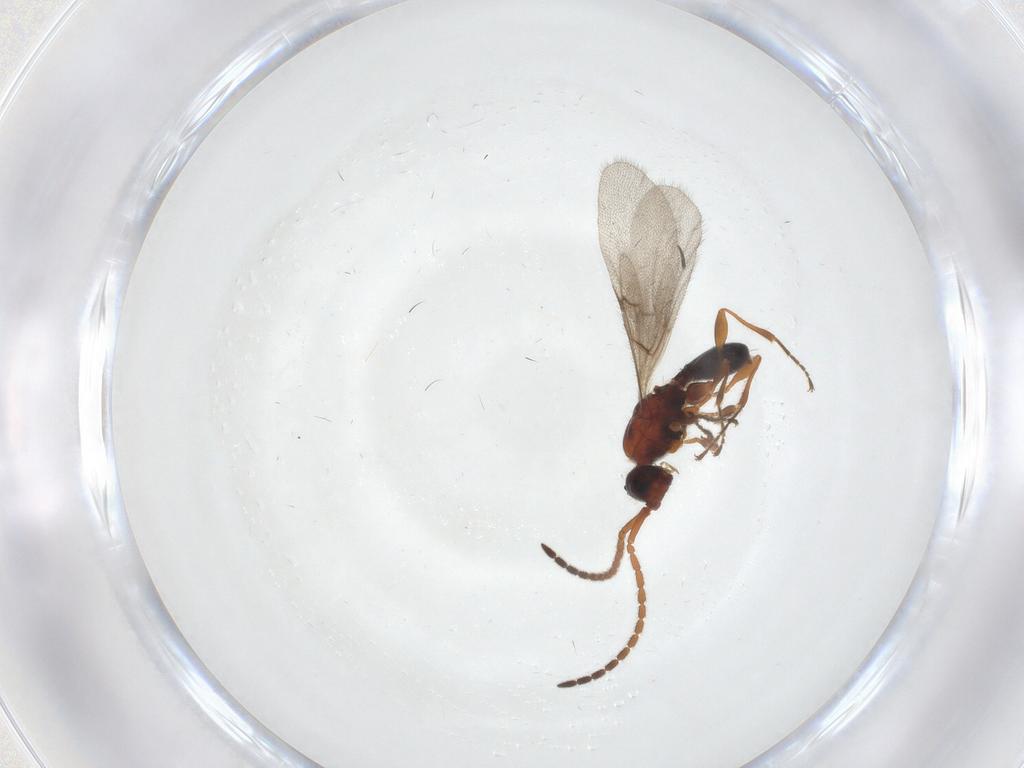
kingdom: Animalia
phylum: Arthropoda
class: Insecta
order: Hymenoptera
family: Diapriidae
